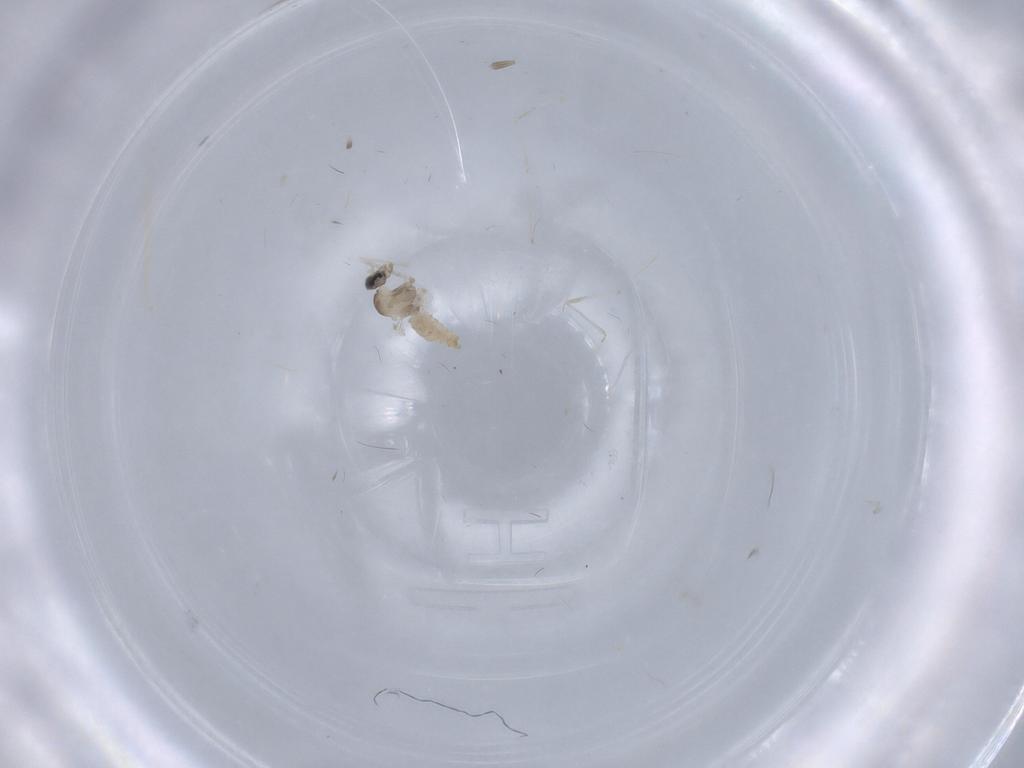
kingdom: Animalia
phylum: Arthropoda
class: Insecta
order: Diptera
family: Cecidomyiidae
